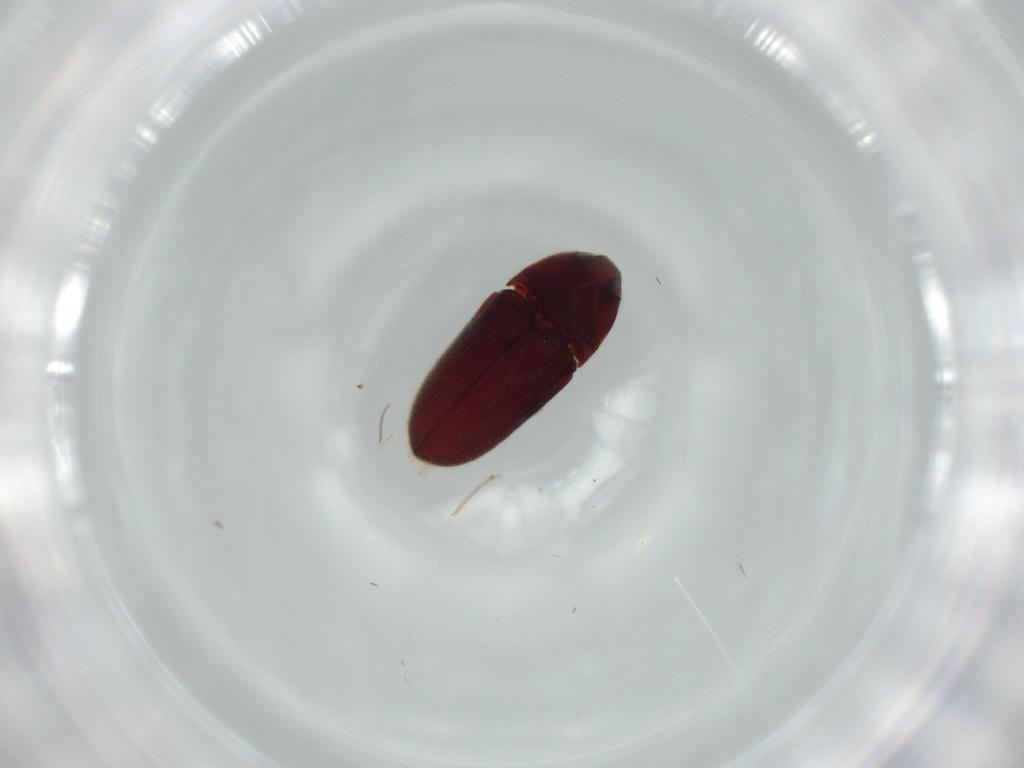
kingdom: Animalia
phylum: Arthropoda
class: Insecta
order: Coleoptera
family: Throscidae
